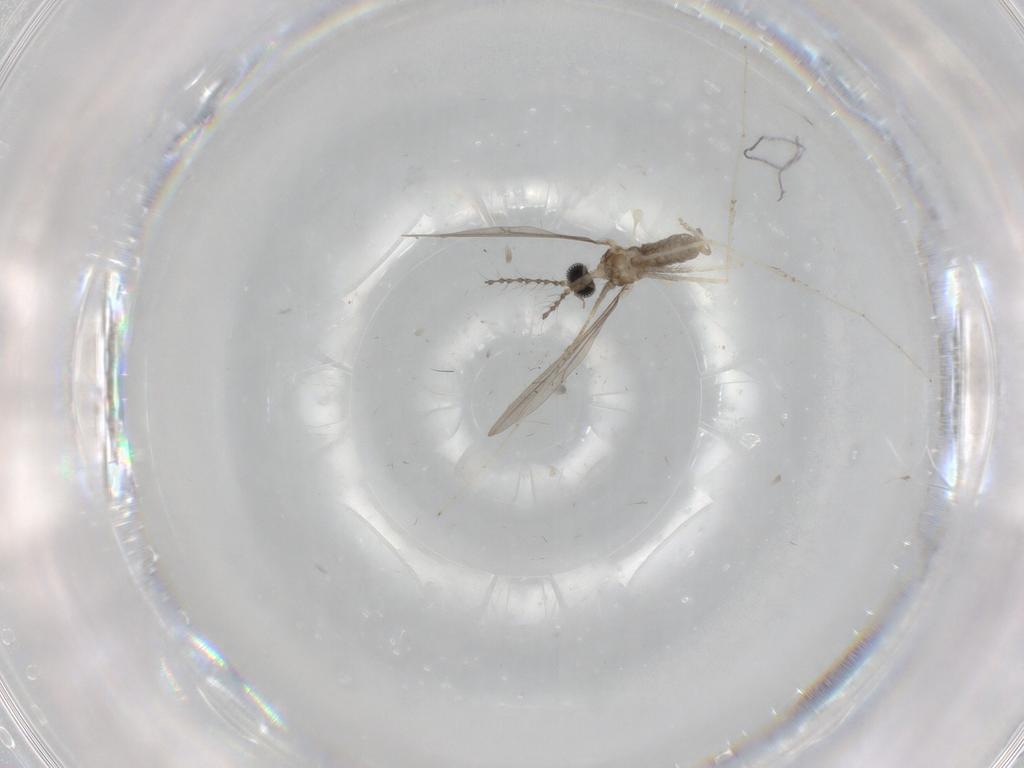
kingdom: Animalia
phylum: Arthropoda
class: Insecta
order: Diptera
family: Cecidomyiidae
